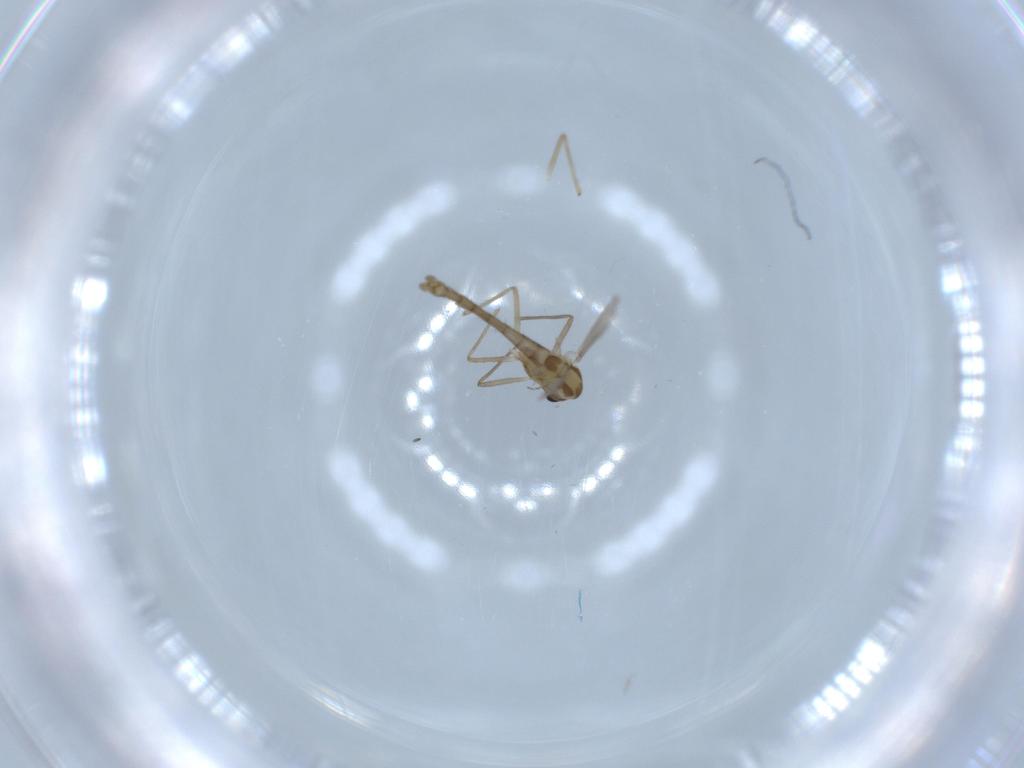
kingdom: Animalia
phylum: Arthropoda
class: Insecta
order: Diptera
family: Chironomidae
